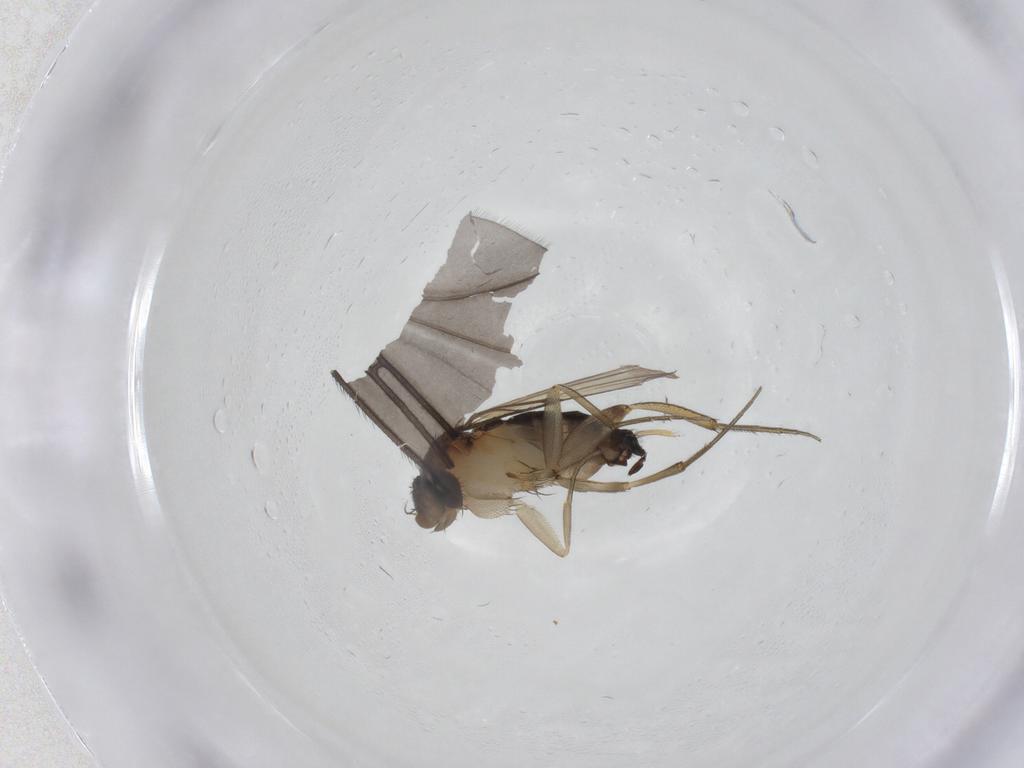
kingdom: Animalia
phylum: Arthropoda
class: Insecta
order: Diptera
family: Phoridae
